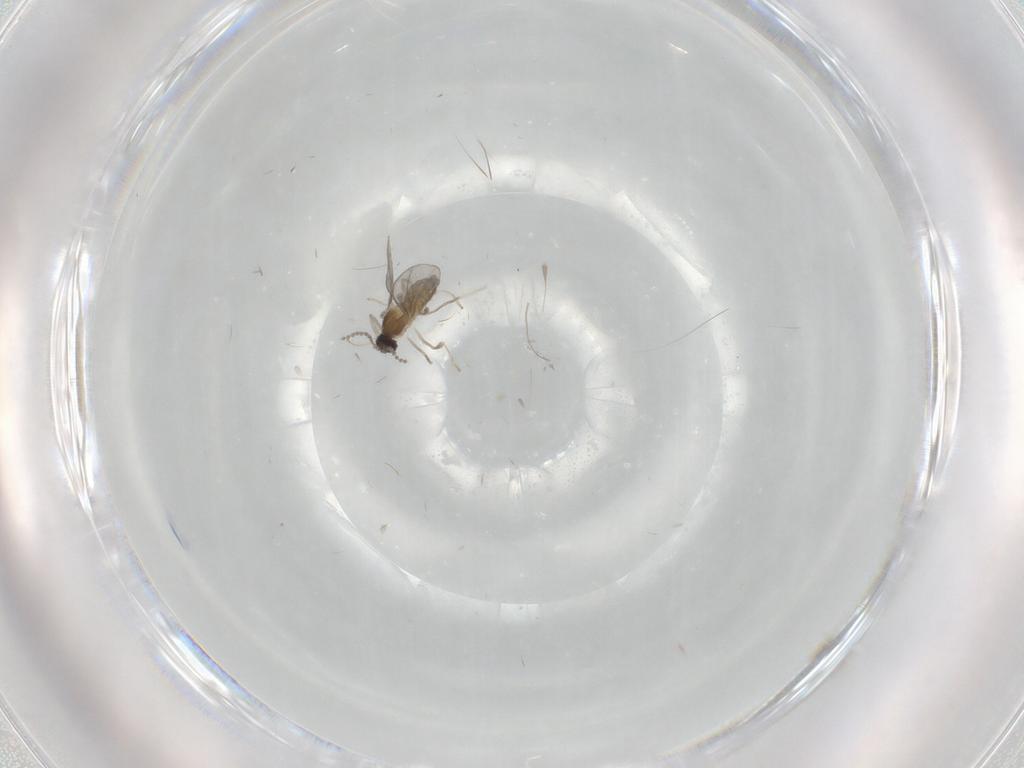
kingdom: Animalia
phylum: Arthropoda
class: Insecta
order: Diptera
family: Cecidomyiidae
